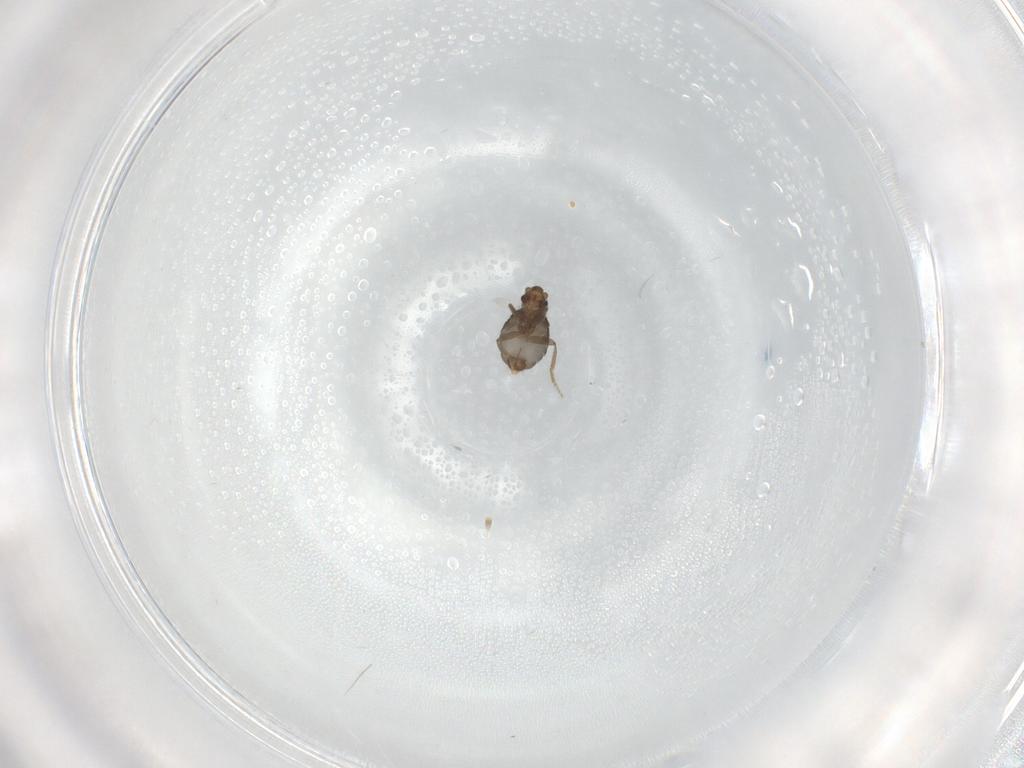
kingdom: Animalia
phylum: Arthropoda
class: Insecta
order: Diptera
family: Phoridae
